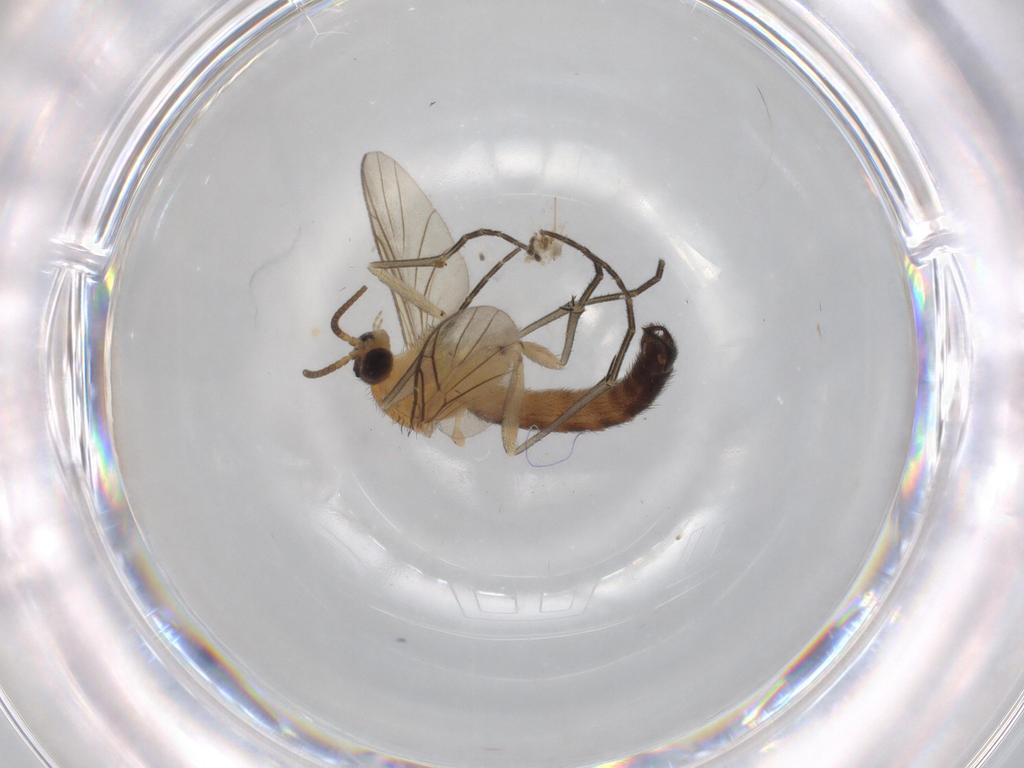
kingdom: Animalia
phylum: Arthropoda
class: Insecta
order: Diptera
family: Keroplatidae
